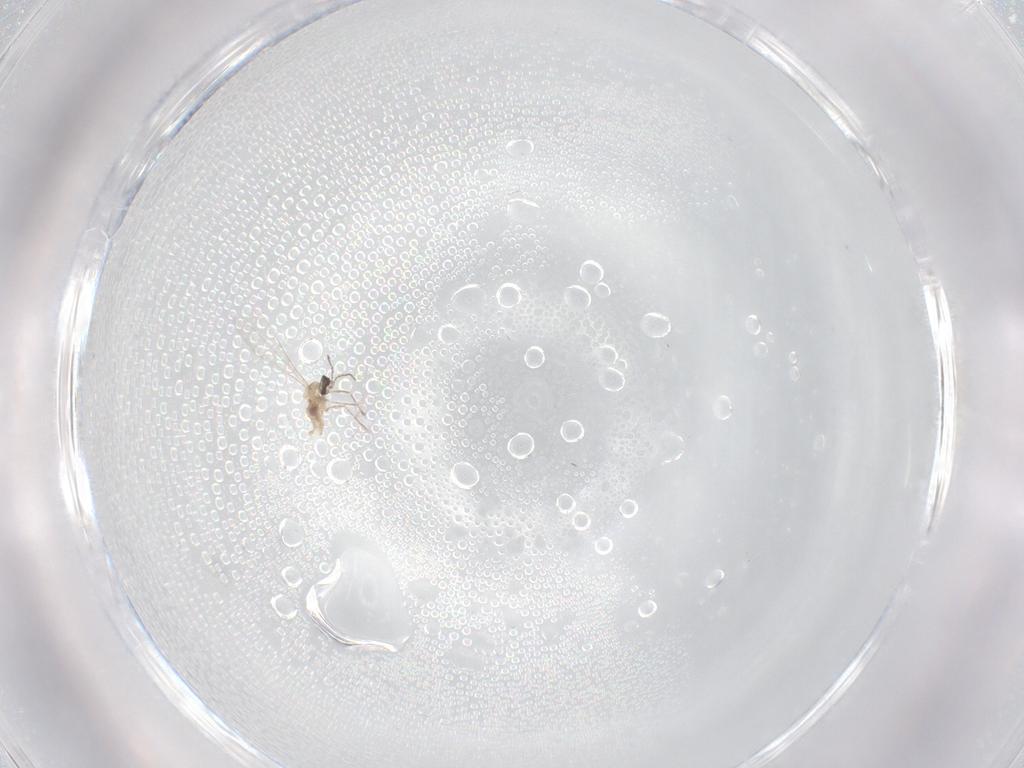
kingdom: Animalia
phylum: Arthropoda
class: Insecta
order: Diptera
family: Cecidomyiidae
